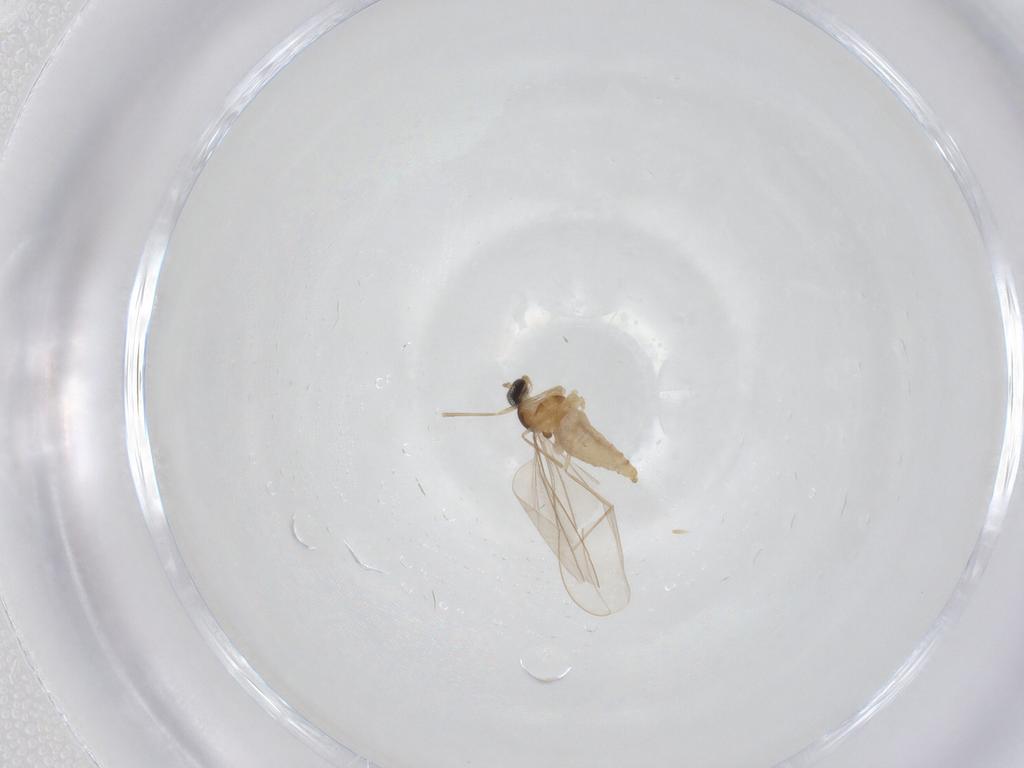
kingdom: Animalia
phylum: Arthropoda
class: Insecta
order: Diptera
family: Cecidomyiidae
